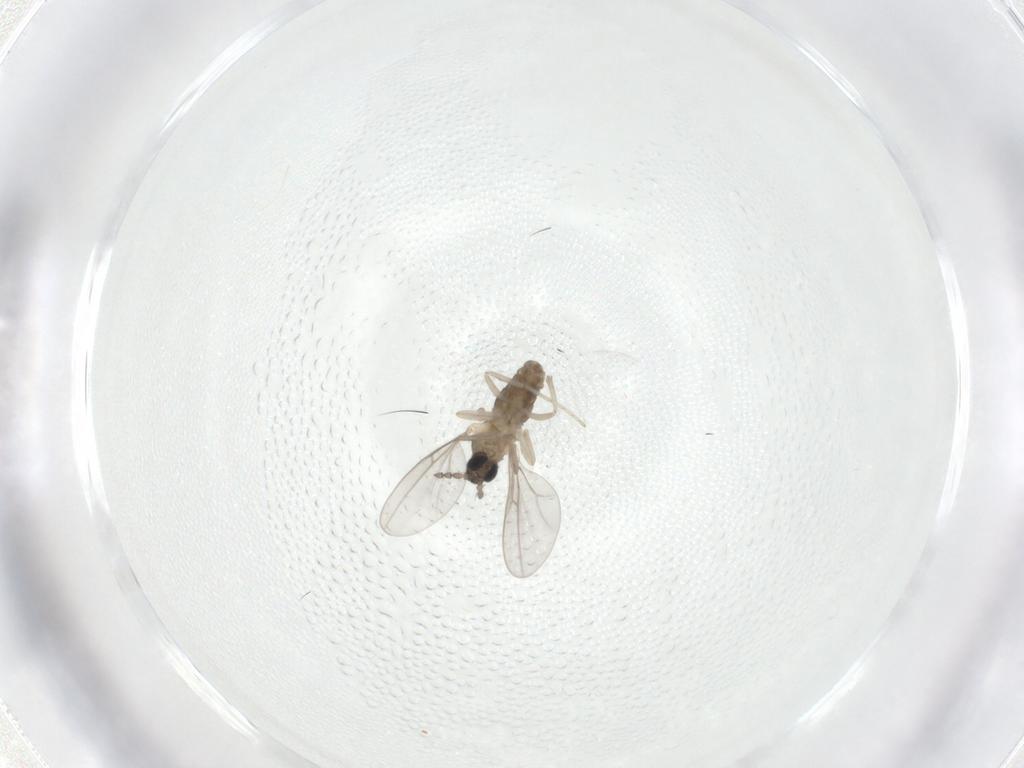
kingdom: Animalia
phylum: Arthropoda
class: Insecta
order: Diptera
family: Cecidomyiidae
